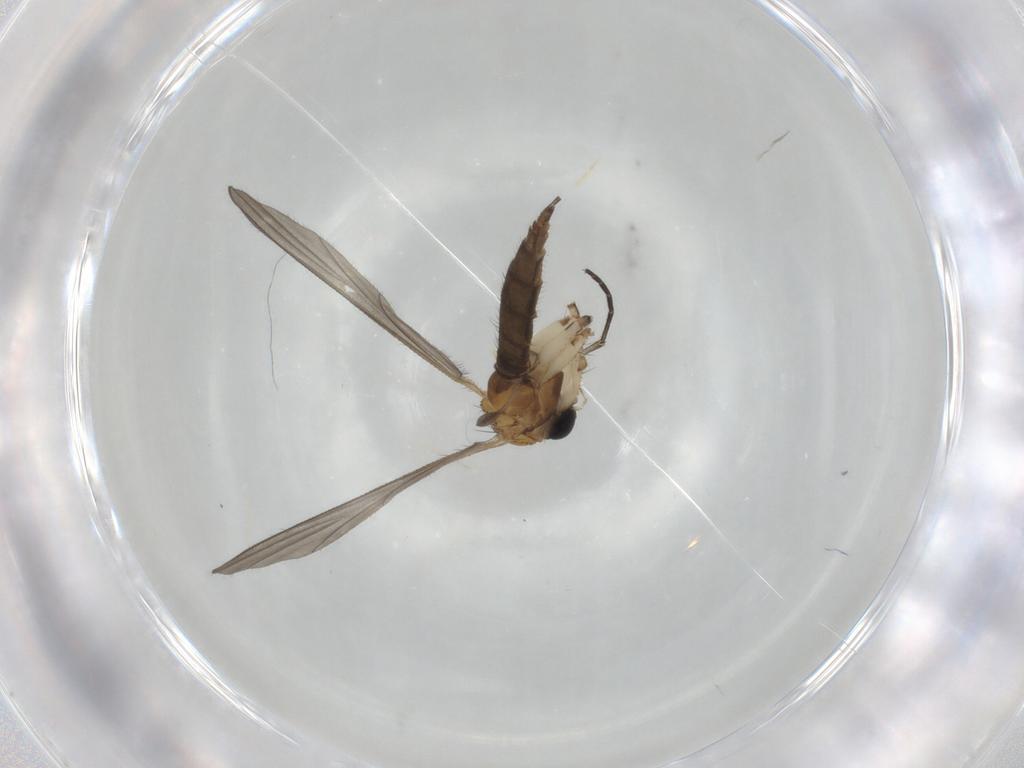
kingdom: Animalia
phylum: Arthropoda
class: Insecta
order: Diptera
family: Sciaridae
